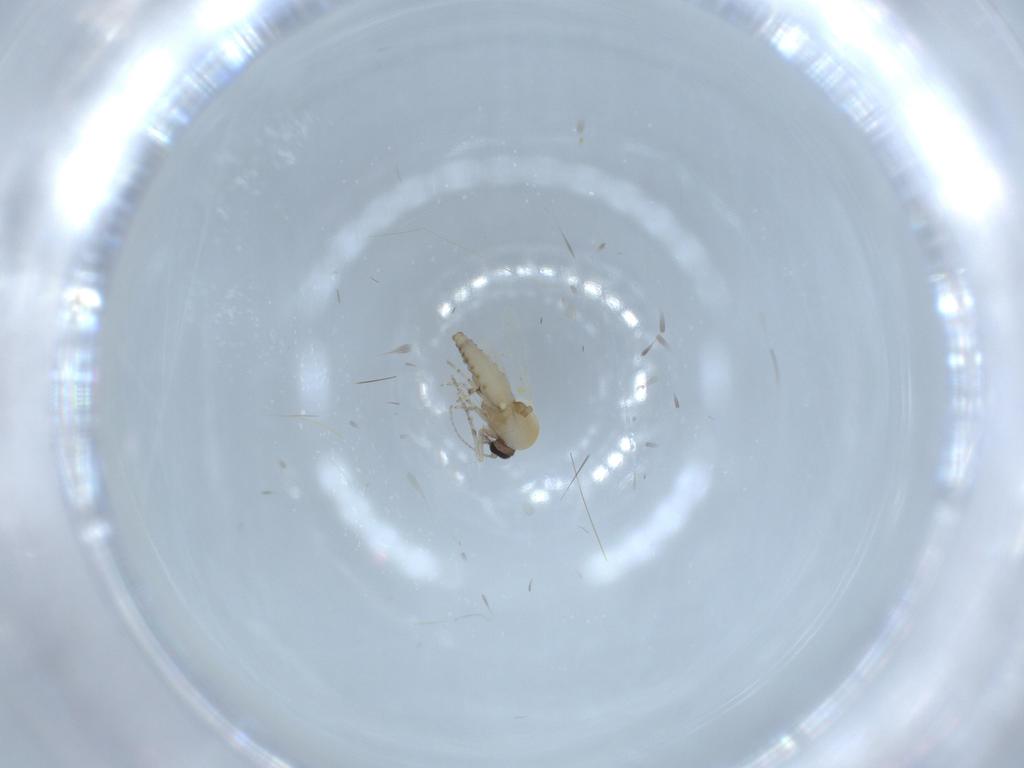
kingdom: Animalia
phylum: Arthropoda
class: Insecta
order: Diptera
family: Ceratopogonidae
